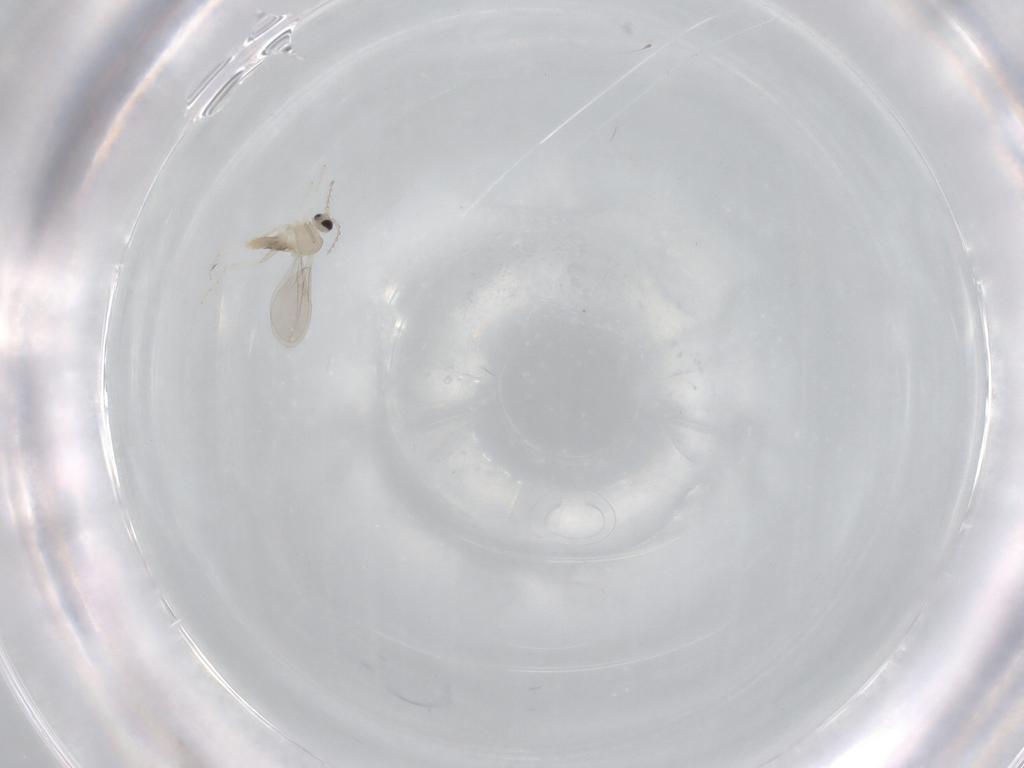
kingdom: Animalia
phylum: Arthropoda
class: Insecta
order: Diptera
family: Cecidomyiidae
